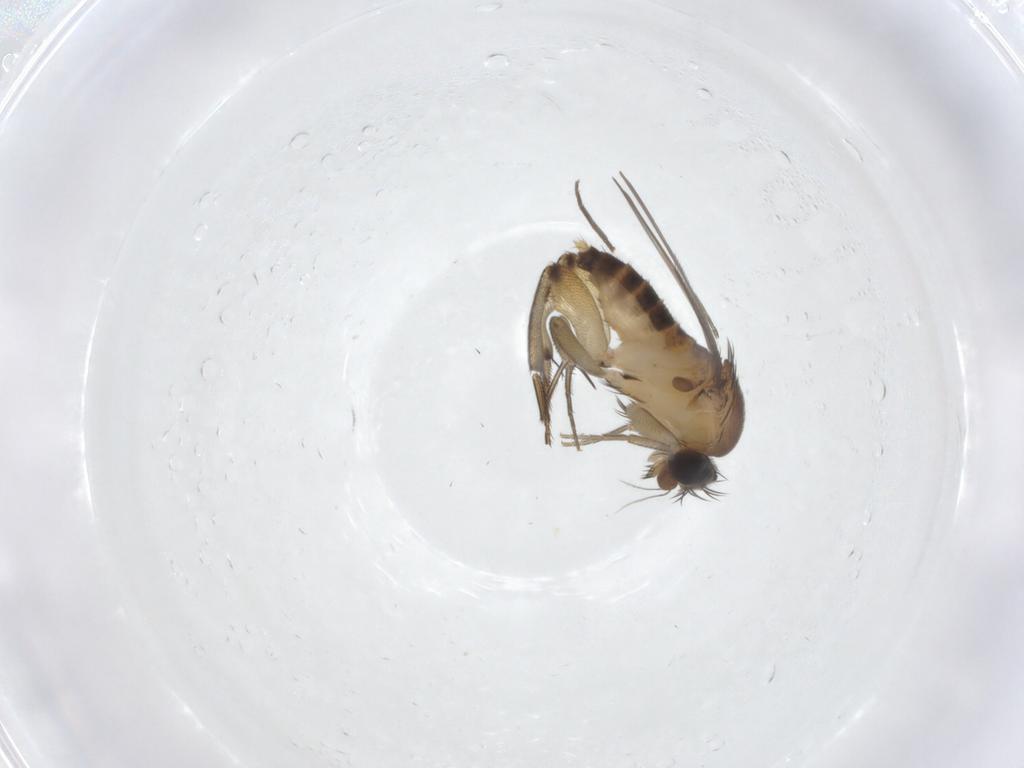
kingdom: Animalia
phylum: Arthropoda
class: Insecta
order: Diptera
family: Phoridae
